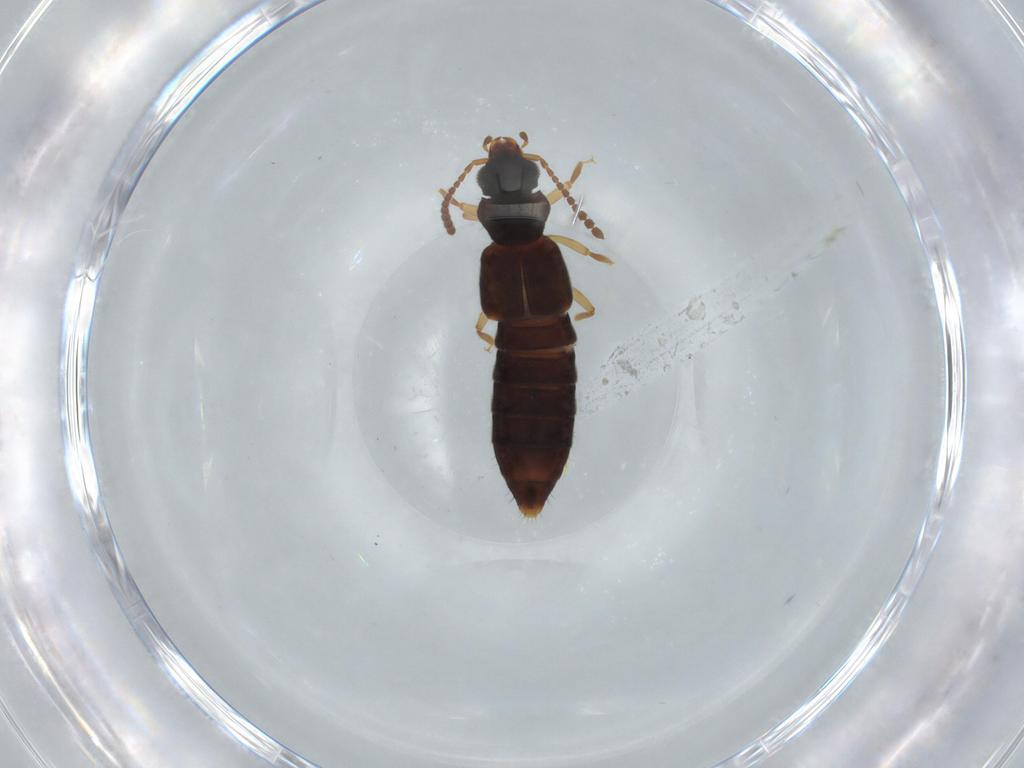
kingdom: Animalia
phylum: Arthropoda
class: Insecta
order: Coleoptera
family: Staphylinidae
